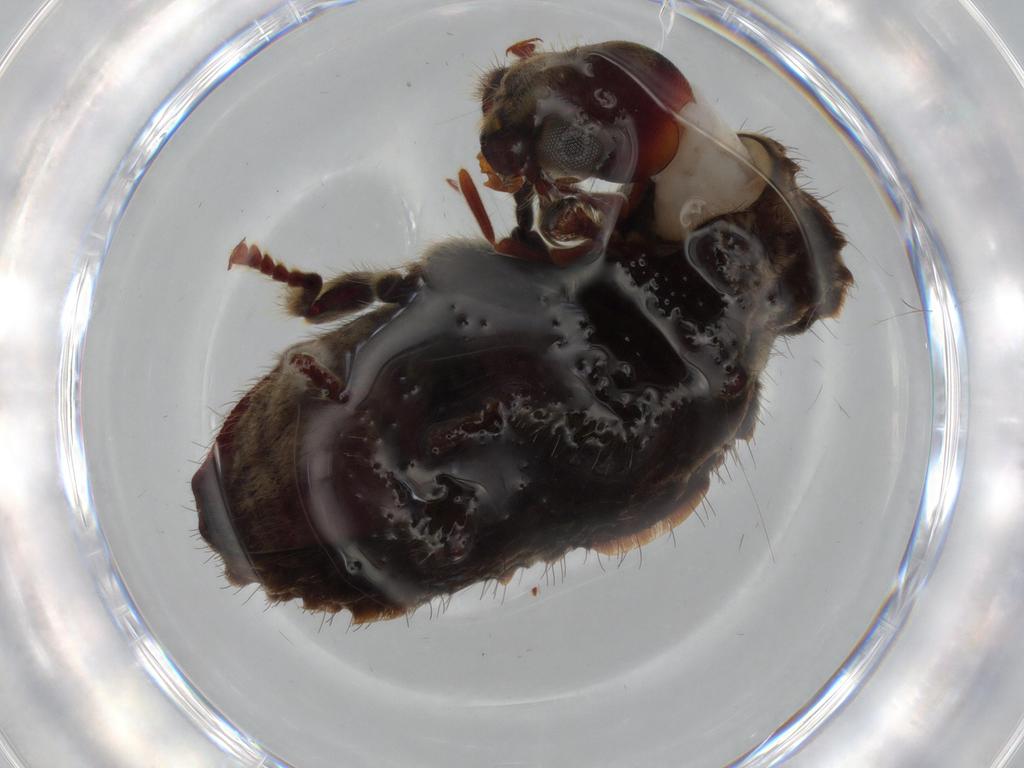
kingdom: Animalia
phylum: Arthropoda
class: Insecta
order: Coleoptera
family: Ptinidae
